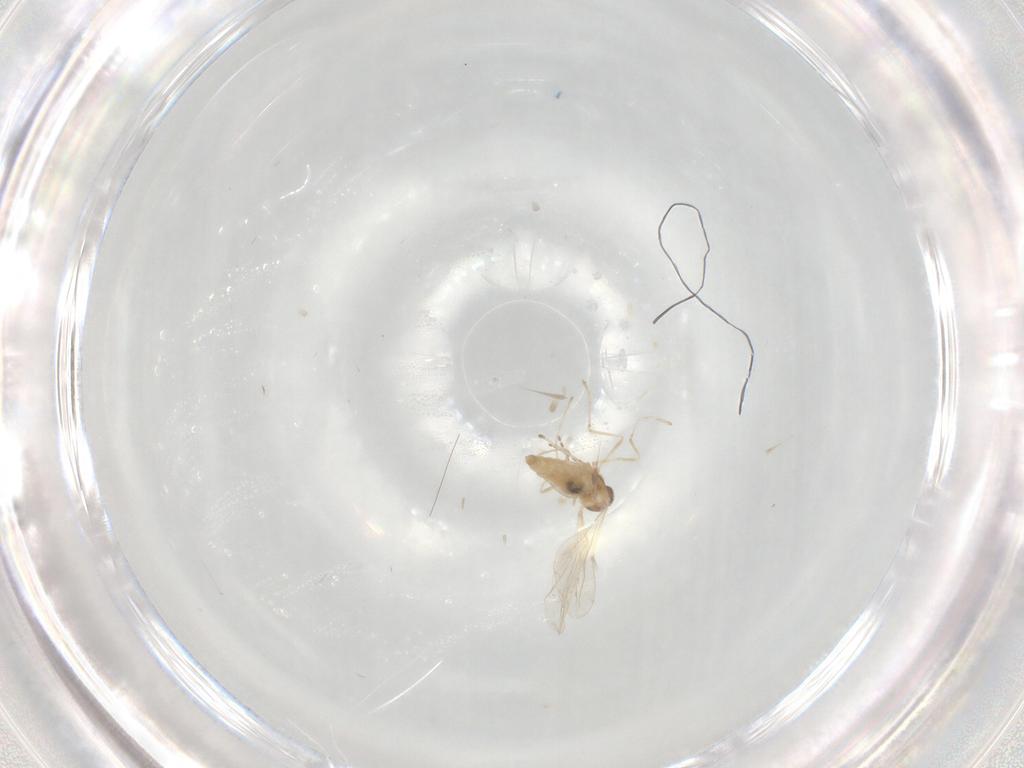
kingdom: Animalia
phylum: Arthropoda
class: Insecta
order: Diptera
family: Cecidomyiidae
